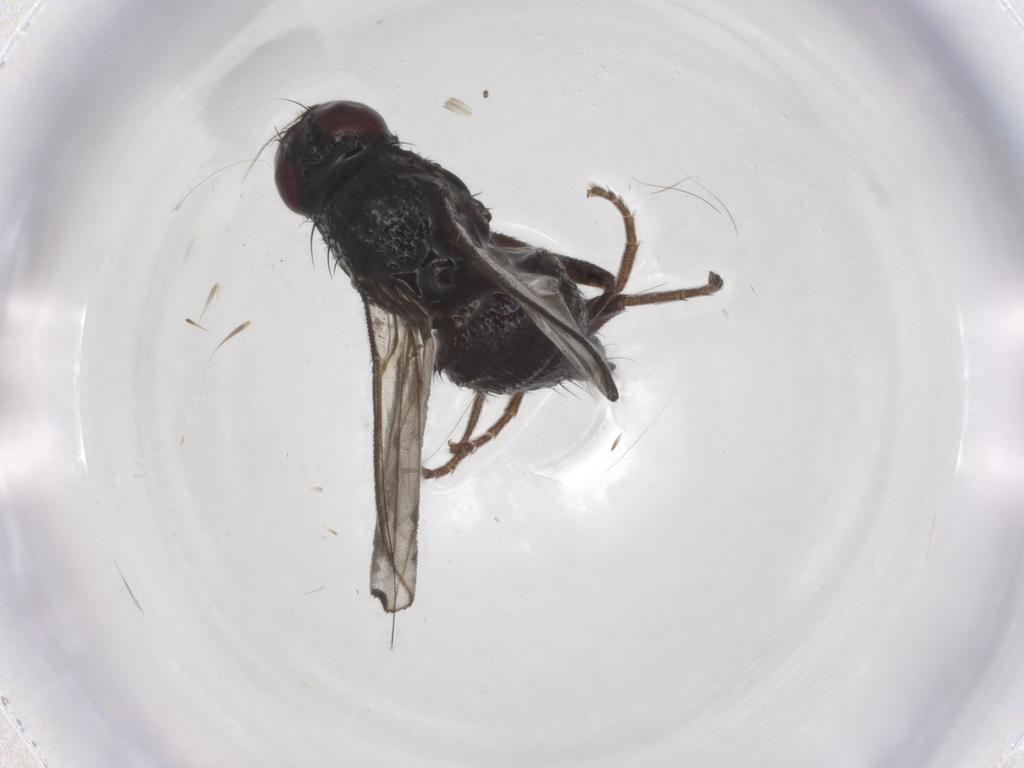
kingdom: Animalia
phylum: Arthropoda
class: Insecta
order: Diptera
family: Agromyzidae
